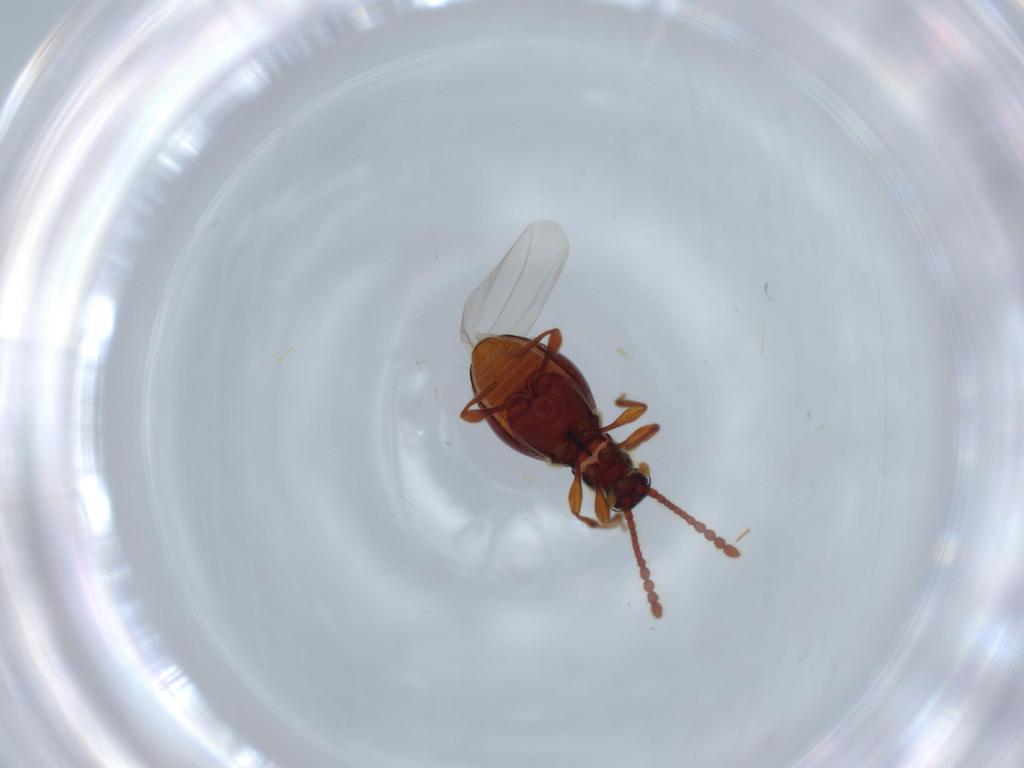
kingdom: Animalia
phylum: Arthropoda
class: Insecta
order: Coleoptera
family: Staphylinidae
